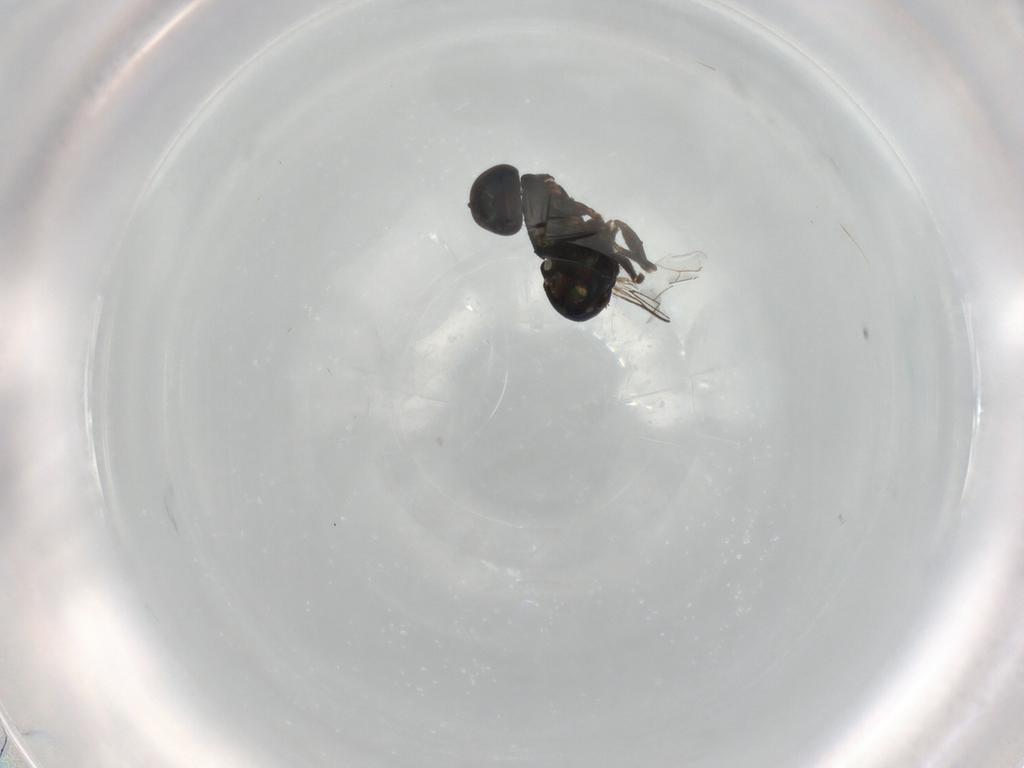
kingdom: Animalia
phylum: Arthropoda
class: Insecta
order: Diptera
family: Dolichopodidae
